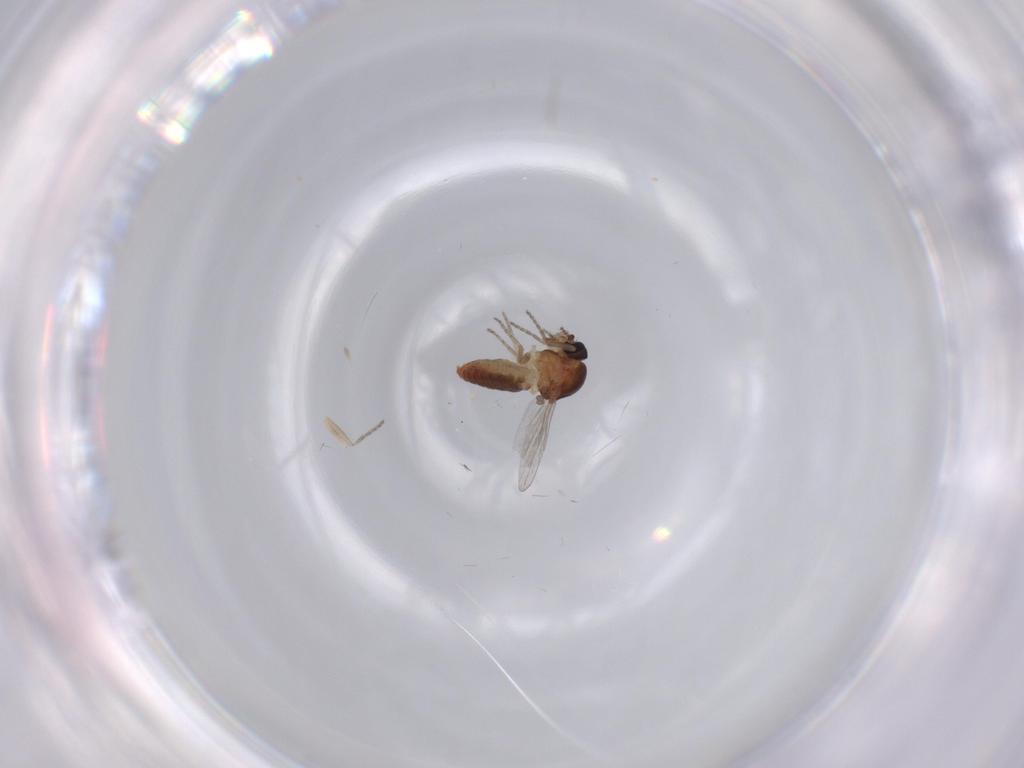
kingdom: Animalia
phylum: Arthropoda
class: Insecta
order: Diptera
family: Ceratopogonidae
